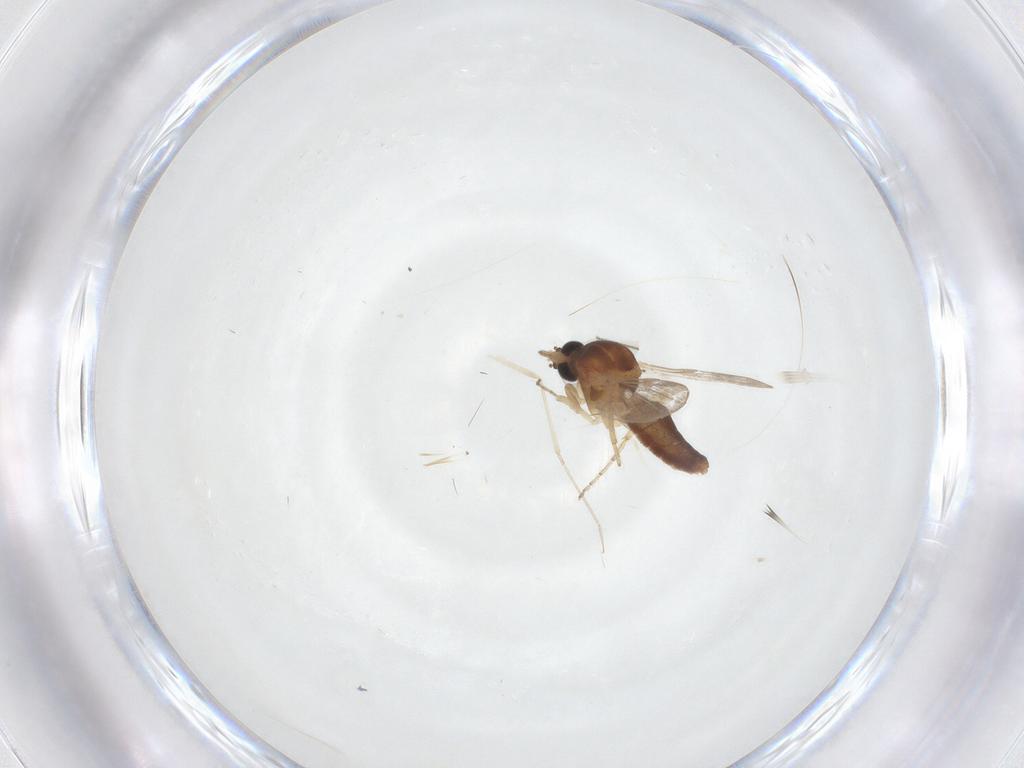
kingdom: Animalia
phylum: Arthropoda
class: Insecta
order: Diptera
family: Ceratopogonidae
